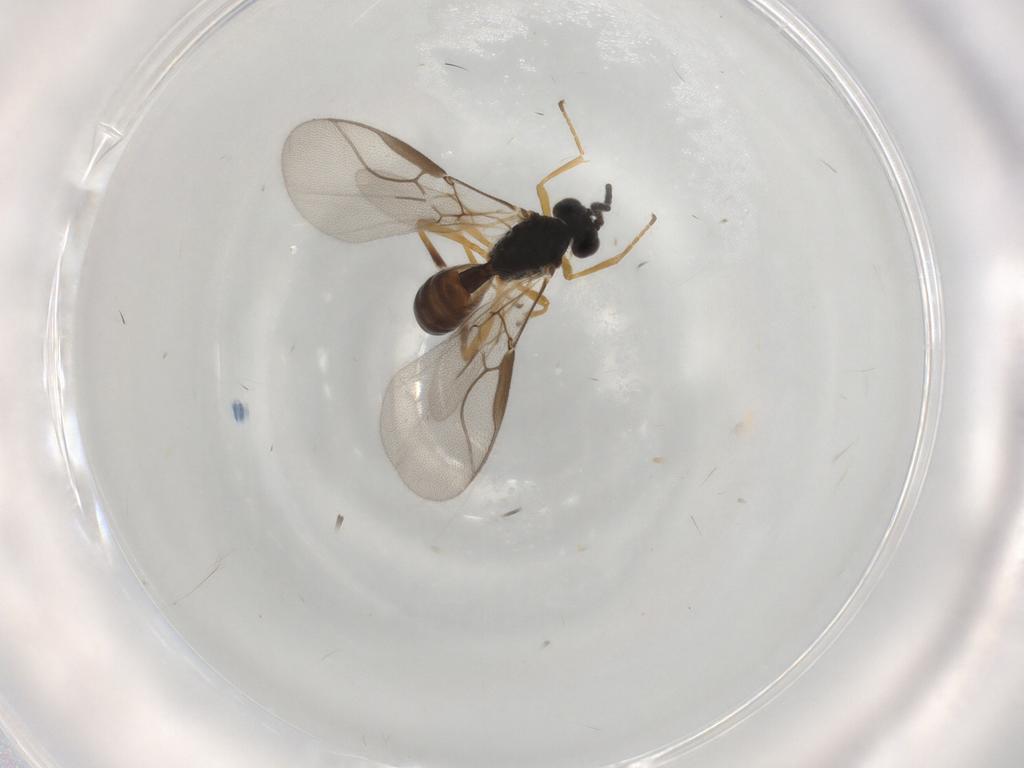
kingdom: Animalia
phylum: Arthropoda
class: Insecta
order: Hymenoptera
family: Braconidae
